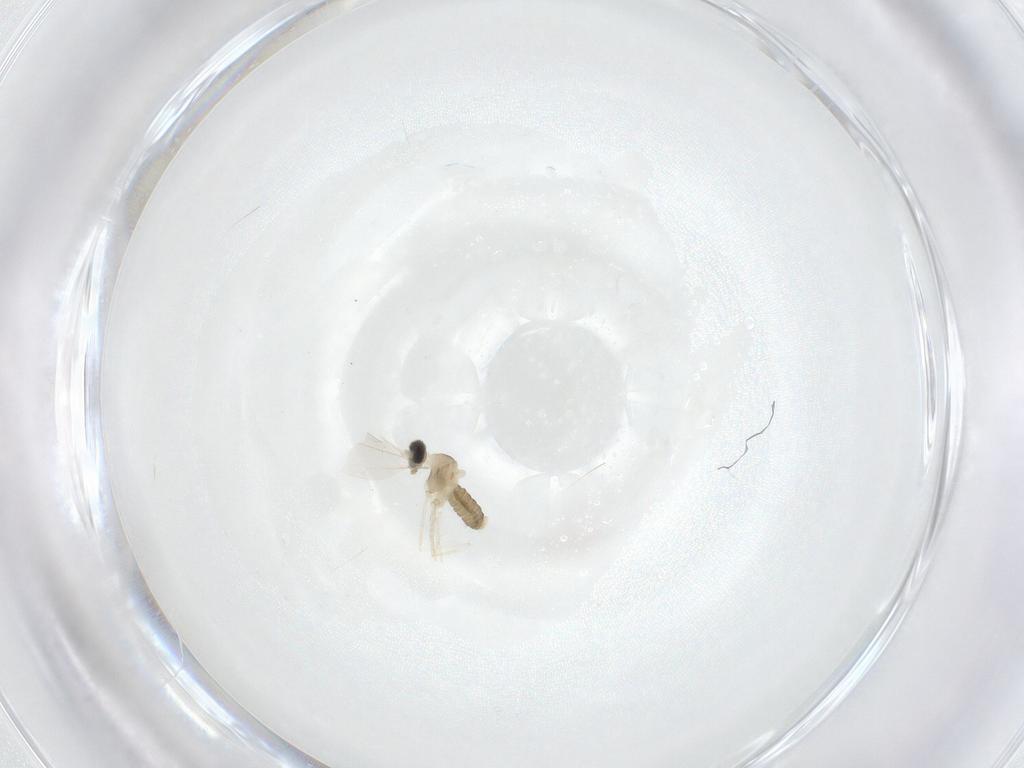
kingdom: Animalia
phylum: Arthropoda
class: Insecta
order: Diptera
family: Cecidomyiidae
